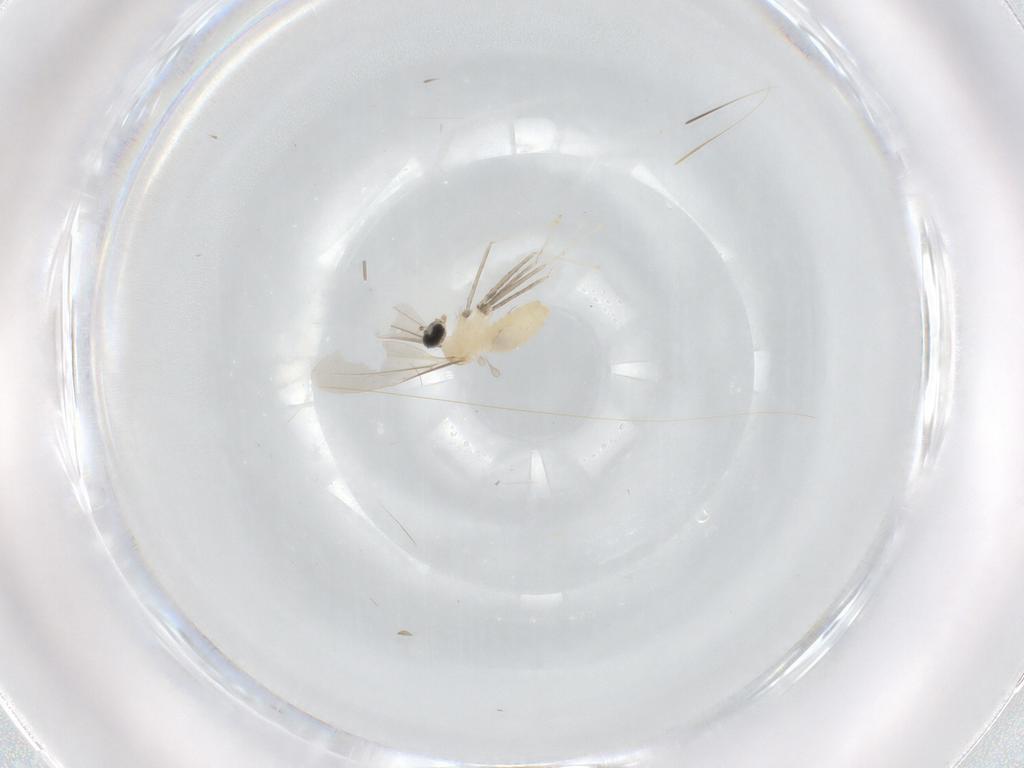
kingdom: Animalia
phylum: Arthropoda
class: Insecta
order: Diptera
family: Cecidomyiidae
